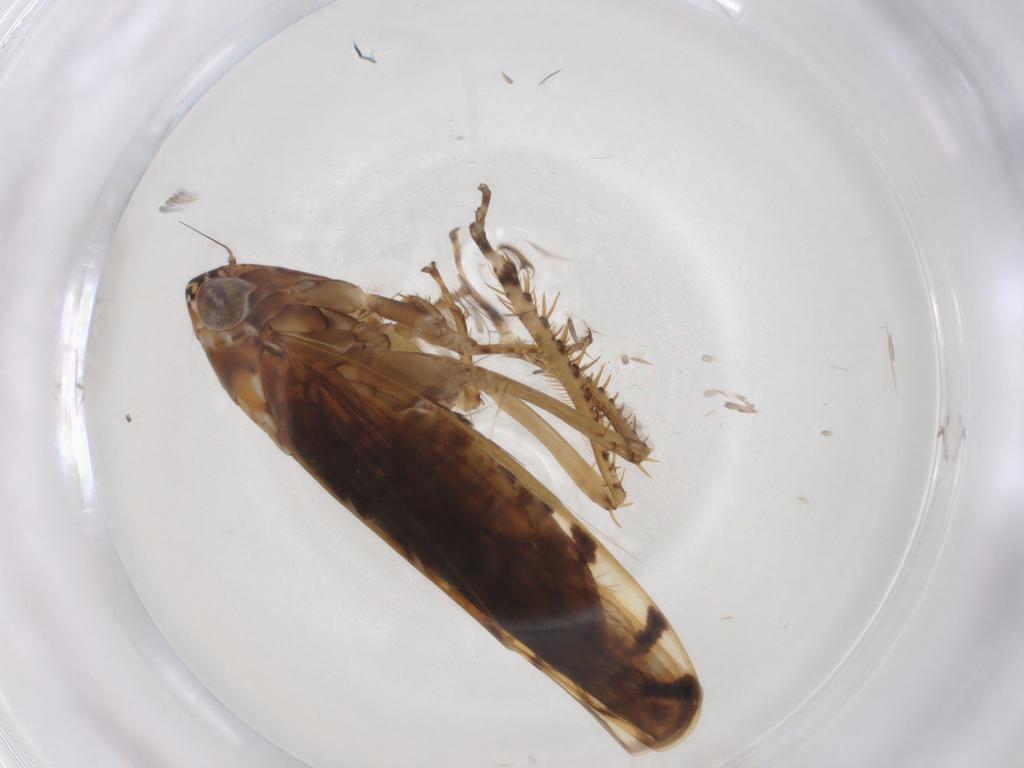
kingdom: Animalia
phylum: Arthropoda
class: Insecta
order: Hemiptera
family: Cicadellidae
